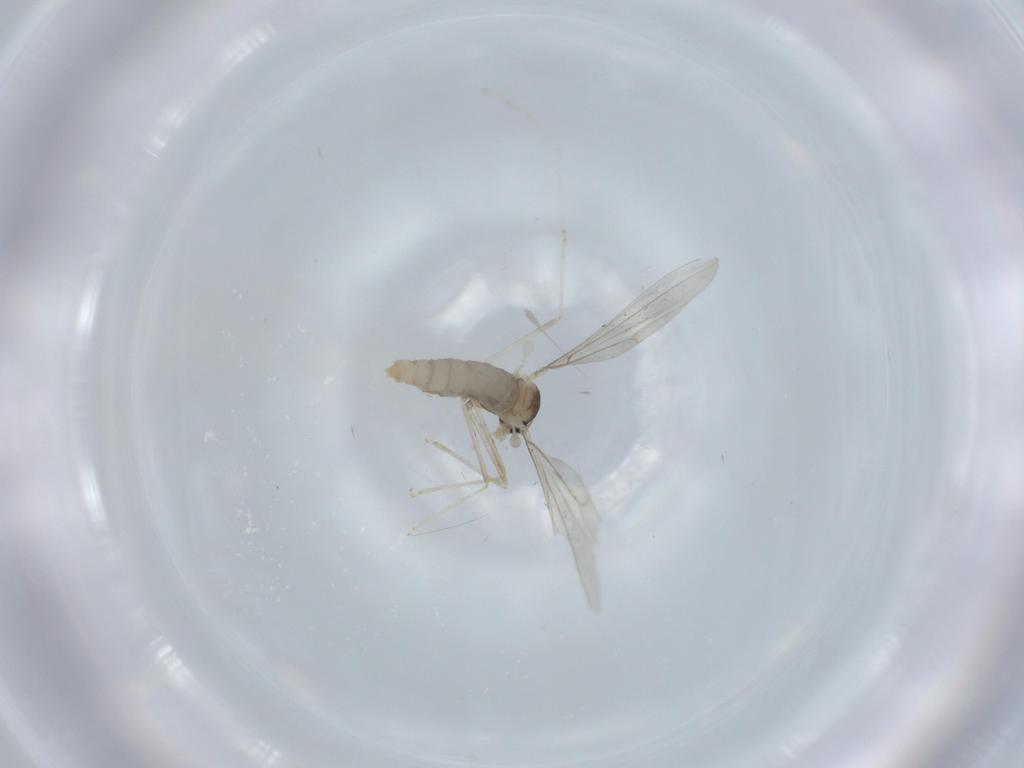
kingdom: Animalia
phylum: Arthropoda
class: Insecta
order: Diptera
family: Cecidomyiidae
